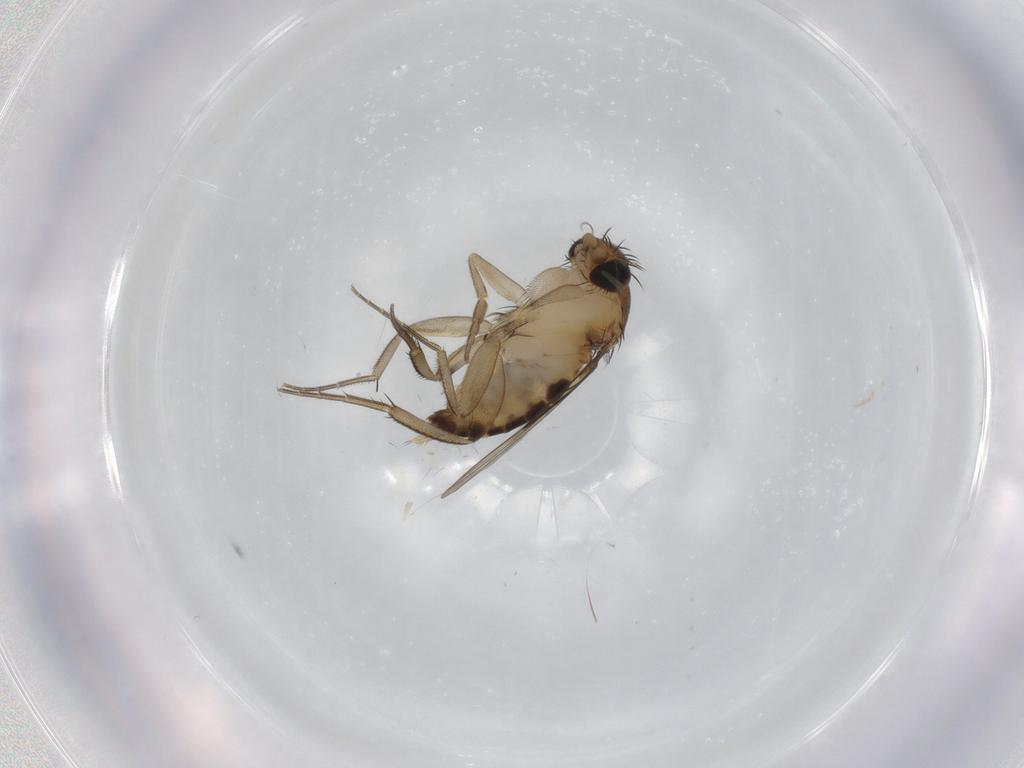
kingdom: Animalia
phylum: Arthropoda
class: Insecta
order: Diptera
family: Phoridae
